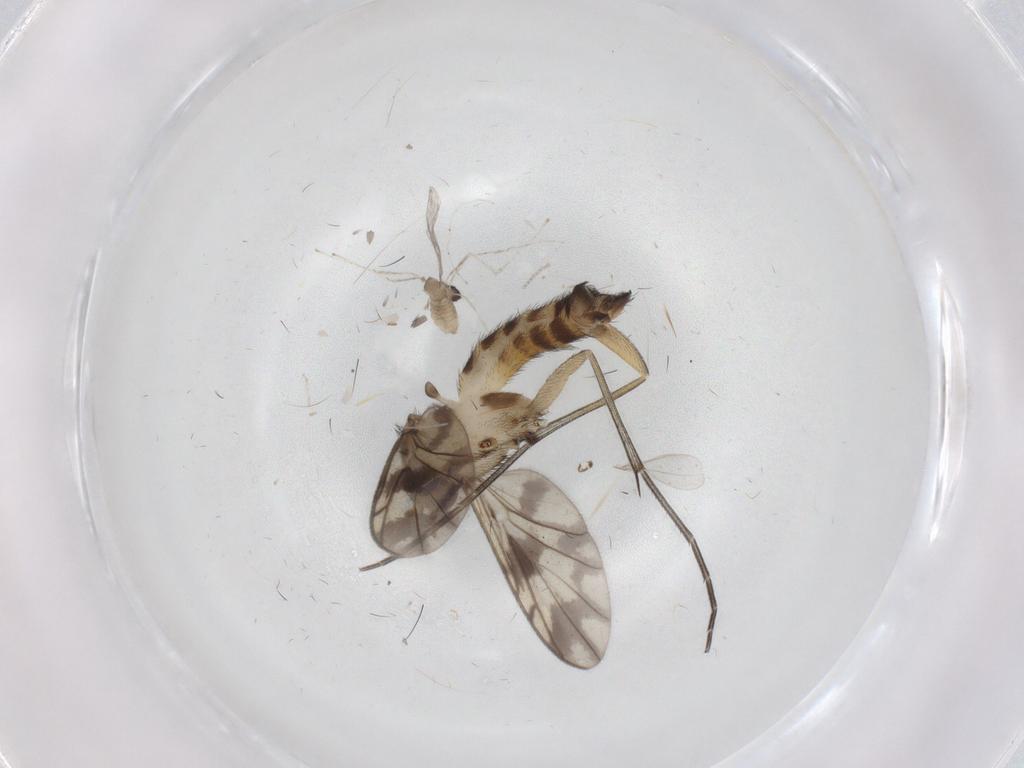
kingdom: Animalia
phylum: Arthropoda
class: Insecta
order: Diptera
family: Keroplatidae
